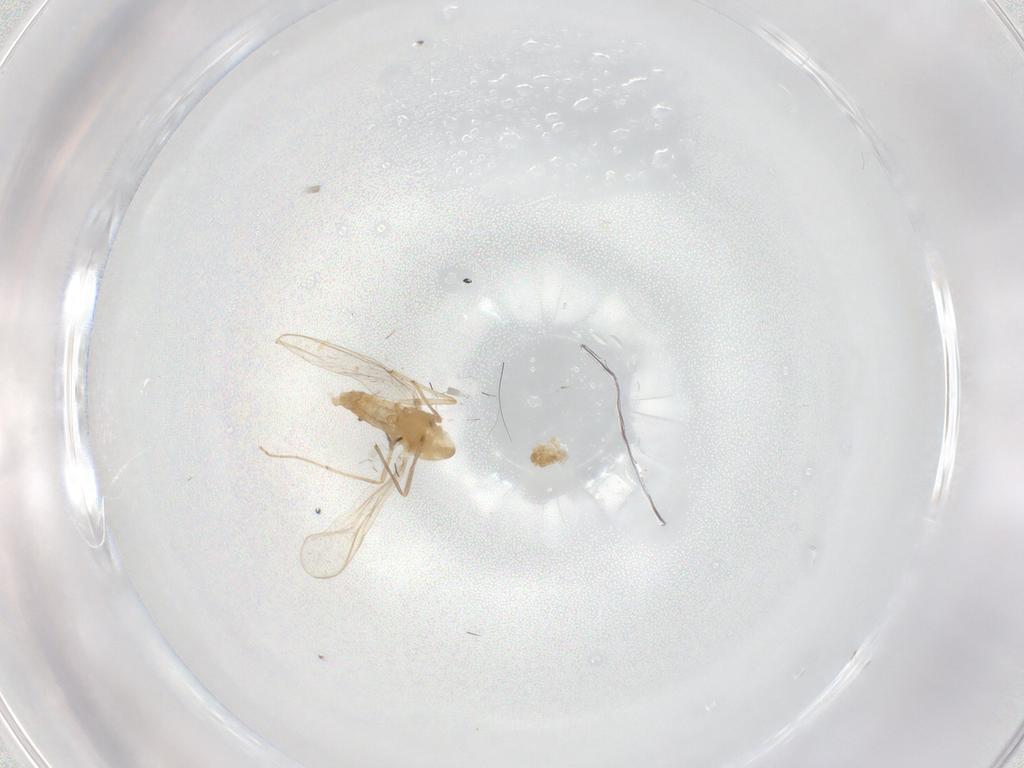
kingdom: Animalia
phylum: Arthropoda
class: Insecta
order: Diptera
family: Chironomidae
